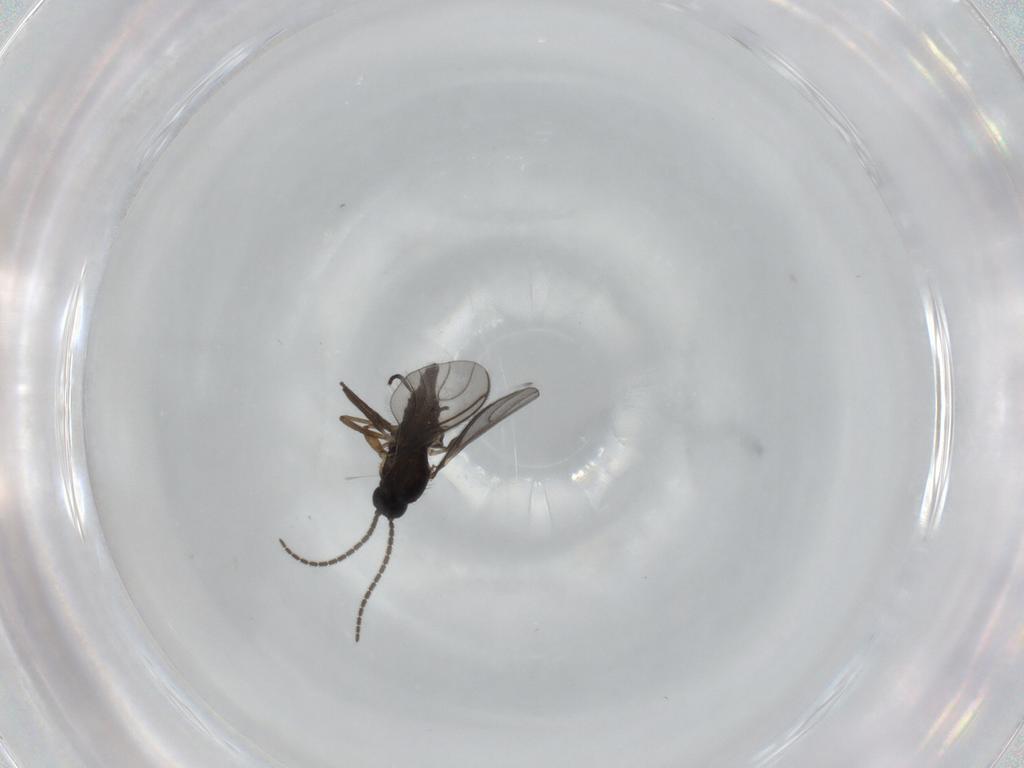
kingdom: Animalia
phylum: Arthropoda
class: Insecta
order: Diptera
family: Sciaridae
